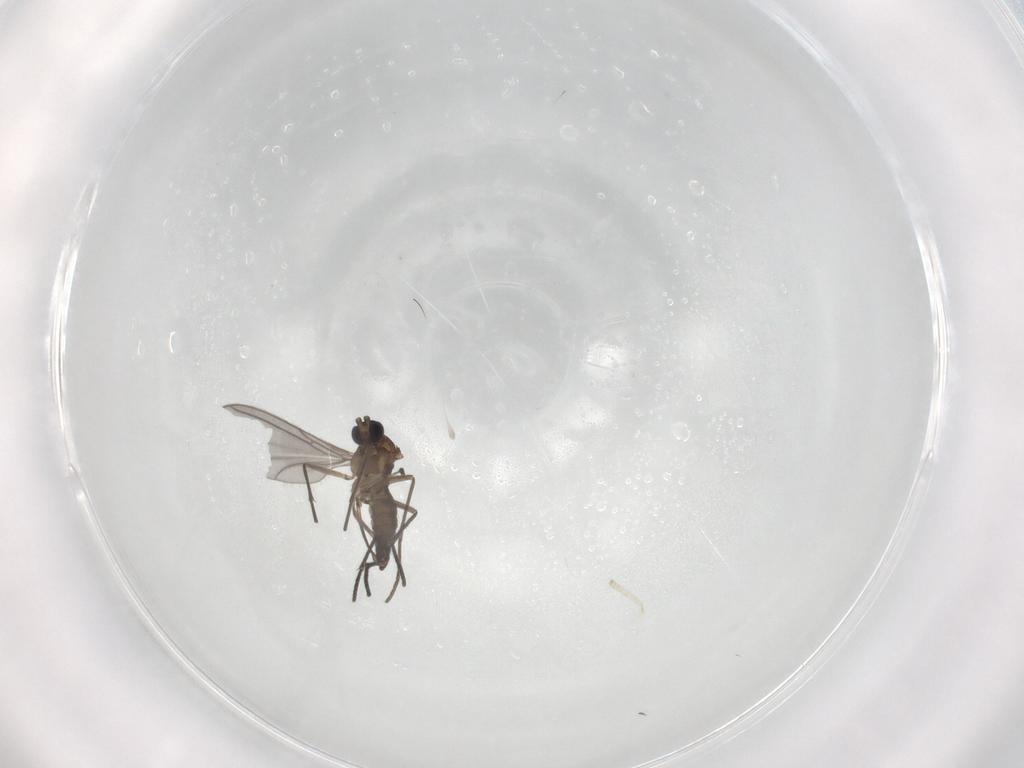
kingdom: Animalia
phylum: Arthropoda
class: Insecta
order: Diptera
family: Sciaridae
